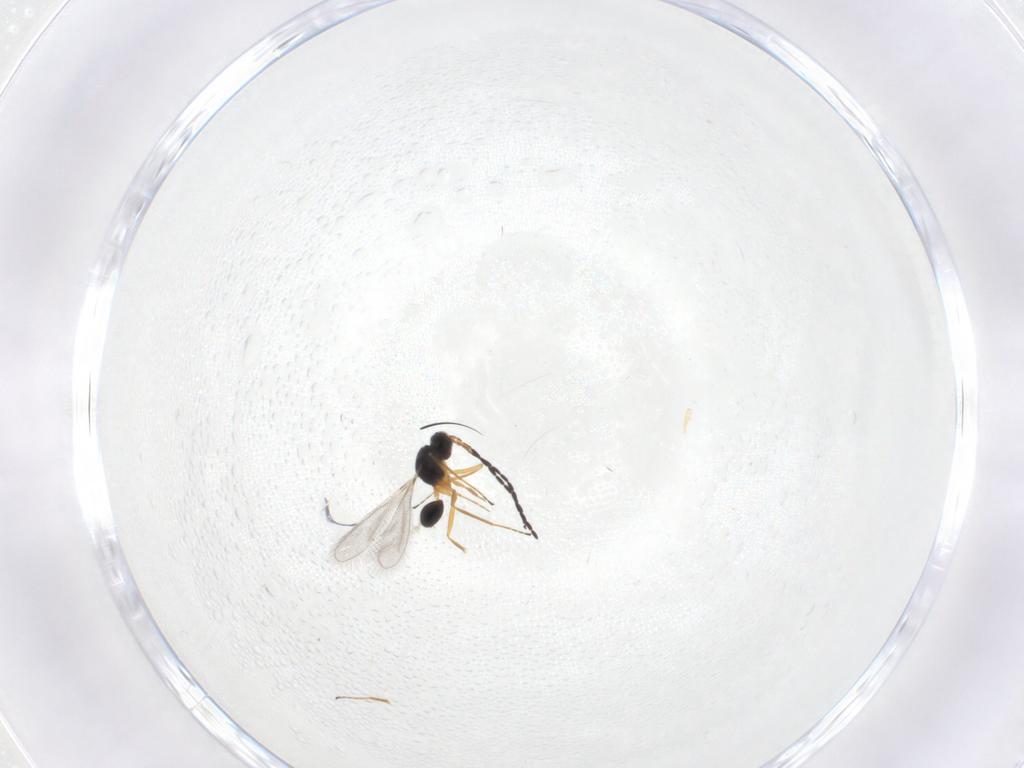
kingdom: Animalia
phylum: Arthropoda
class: Insecta
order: Hymenoptera
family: Mymaridae
